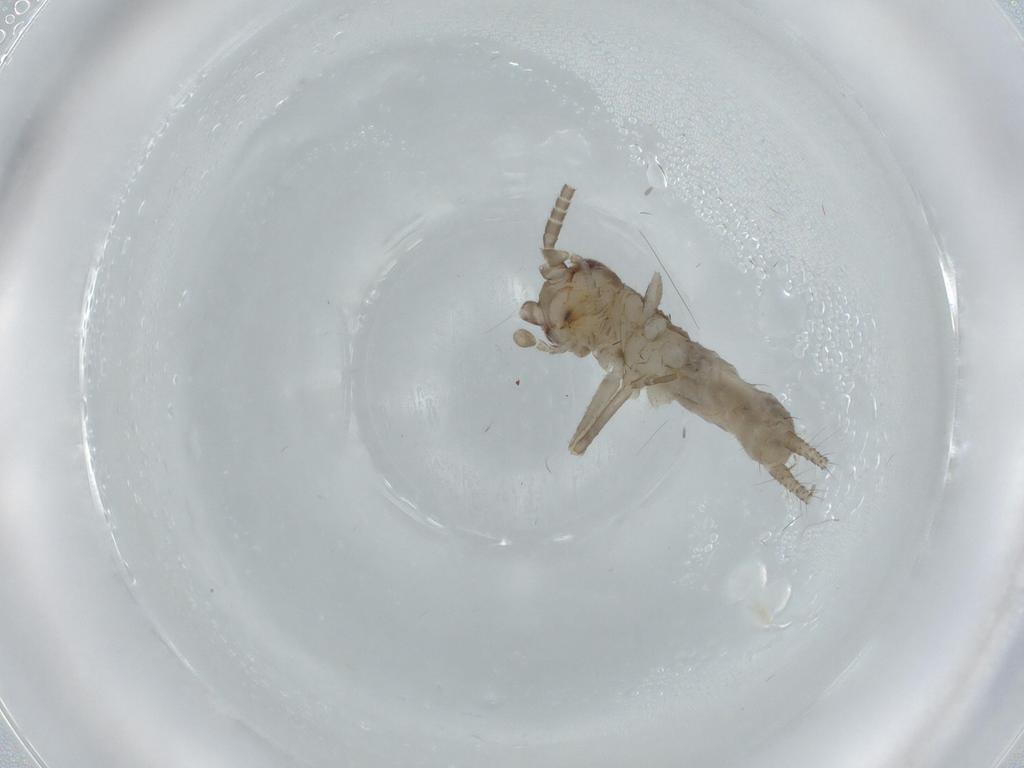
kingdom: Animalia
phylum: Arthropoda
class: Insecta
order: Orthoptera
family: Gryllidae
